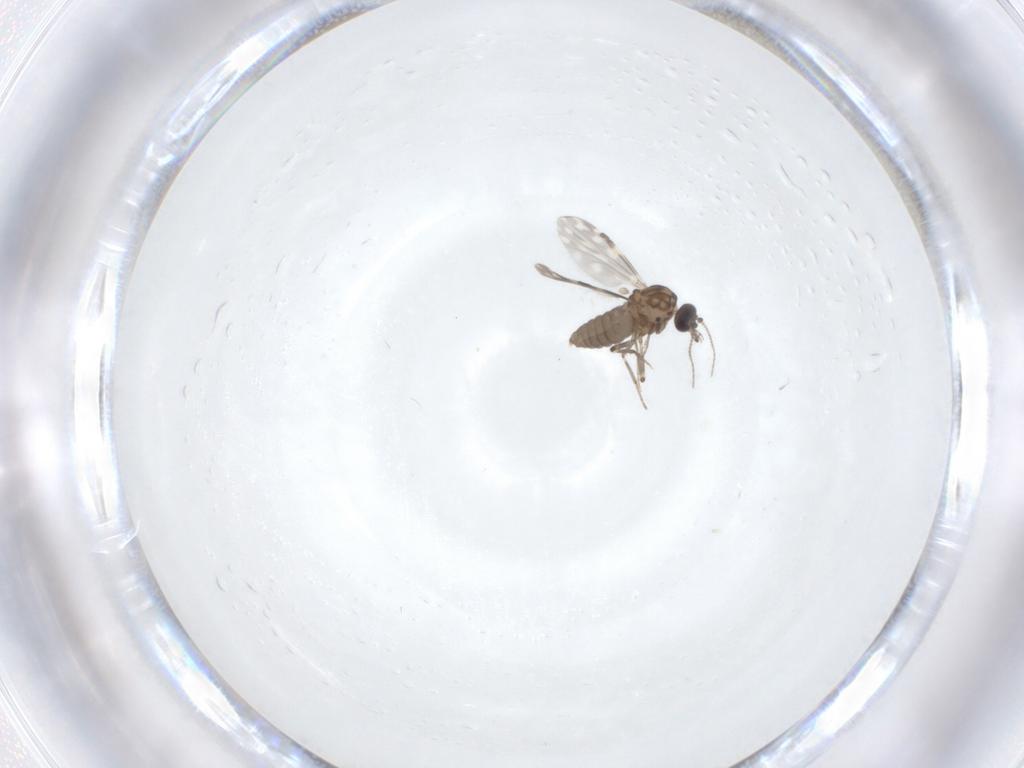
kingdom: Animalia
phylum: Arthropoda
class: Insecta
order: Diptera
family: Ceratopogonidae
